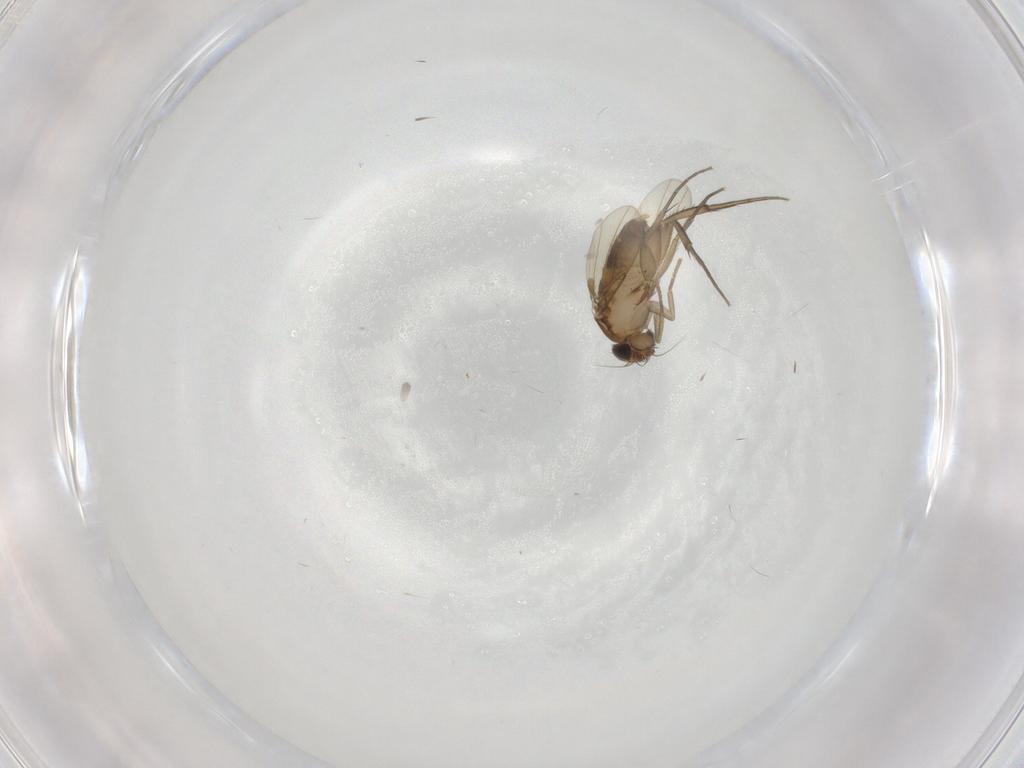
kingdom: Animalia
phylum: Arthropoda
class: Insecta
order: Diptera
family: Phoridae
